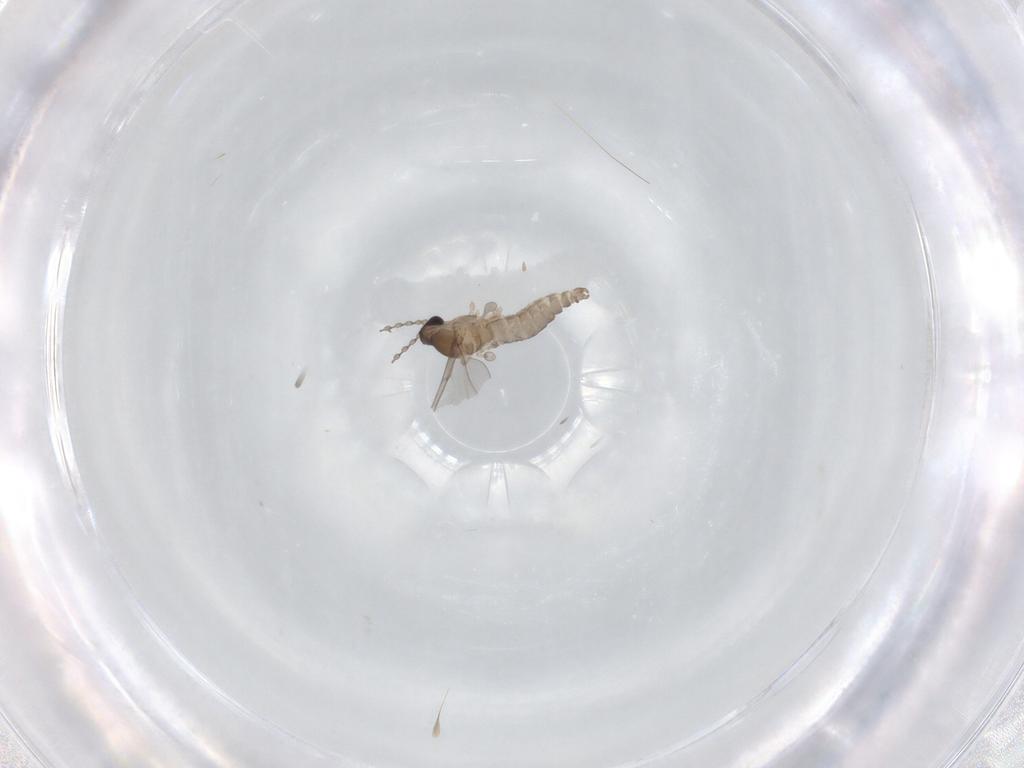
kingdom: Animalia
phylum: Arthropoda
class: Insecta
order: Diptera
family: Cecidomyiidae
